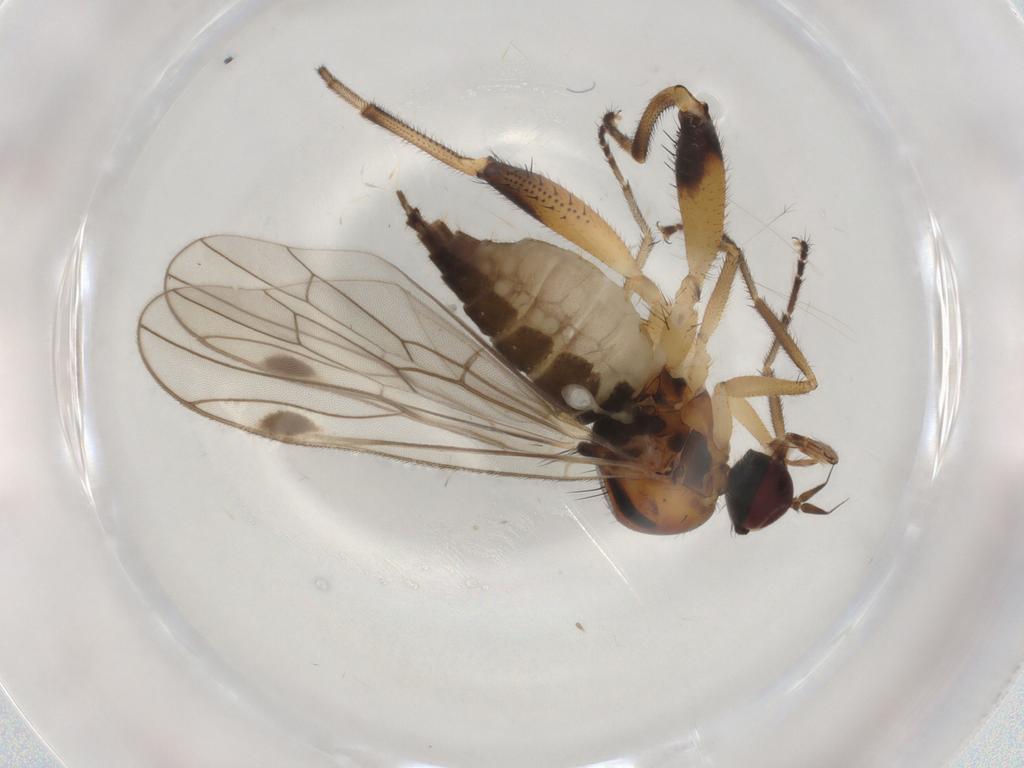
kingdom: Animalia
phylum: Arthropoda
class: Insecta
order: Diptera
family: Hybotidae
